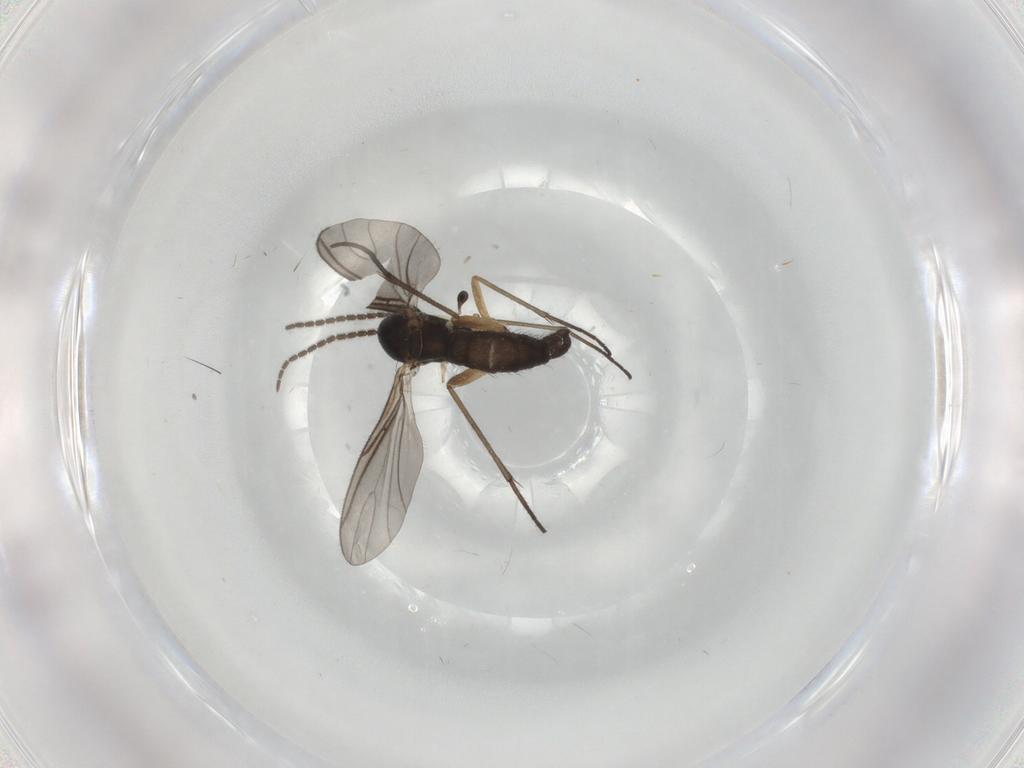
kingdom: Animalia
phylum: Arthropoda
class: Insecta
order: Diptera
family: Sciaridae
